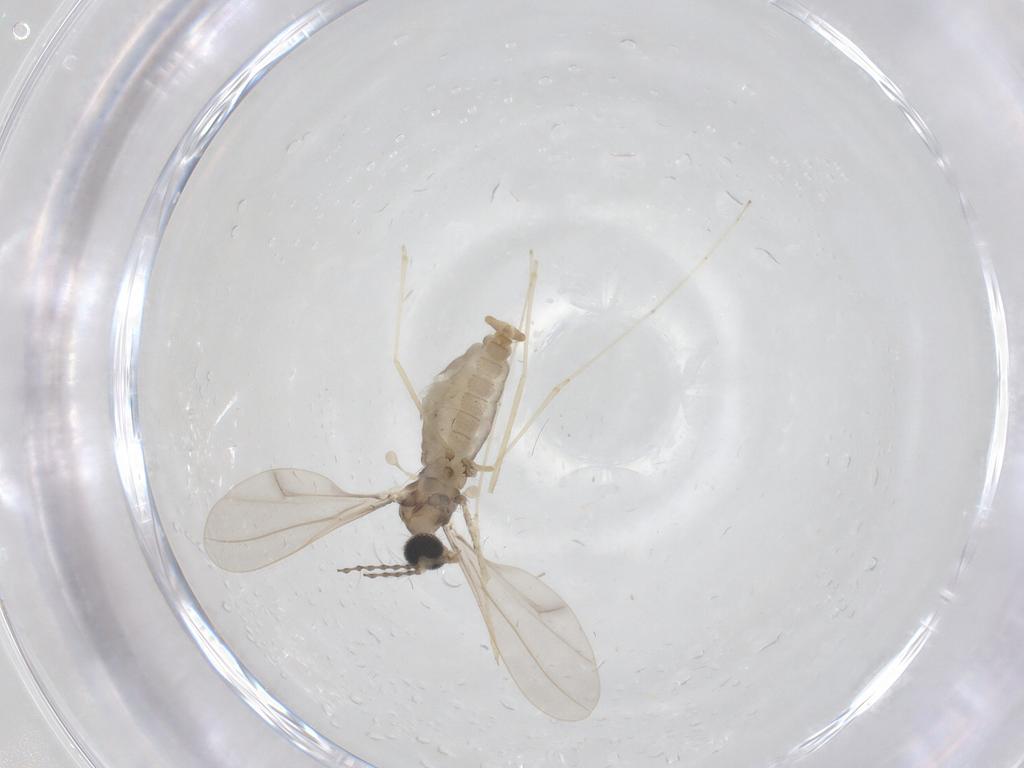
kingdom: Animalia
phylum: Arthropoda
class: Insecta
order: Diptera
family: Cecidomyiidae
